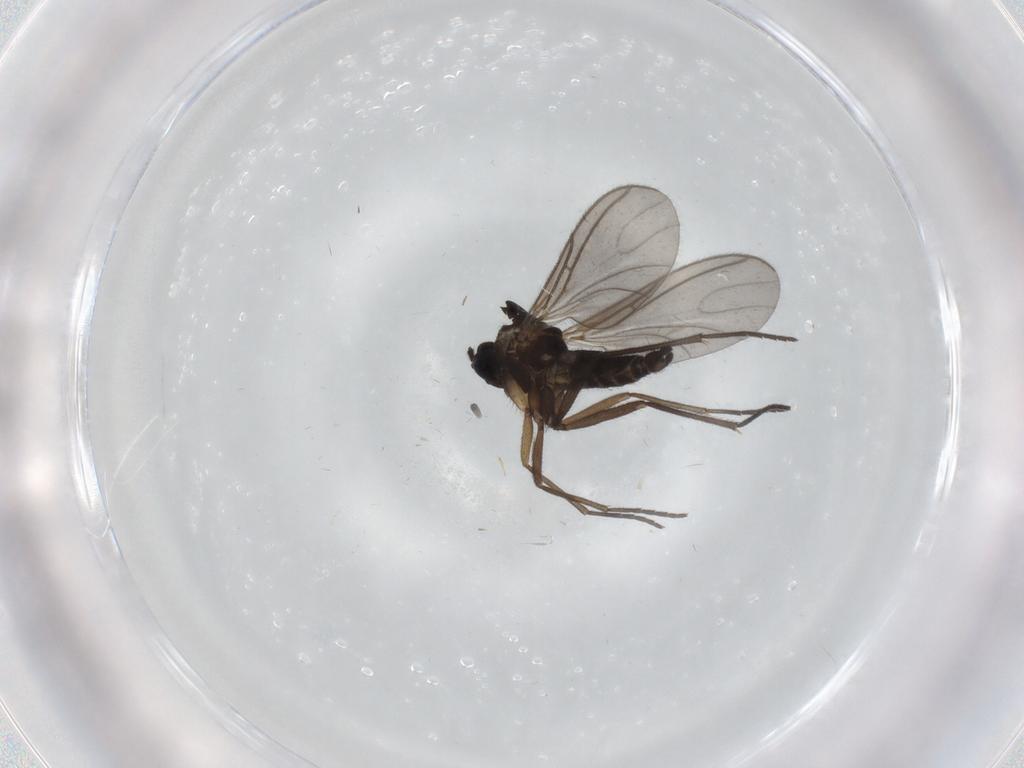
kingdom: Animalia
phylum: Arthropoda
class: Insecta
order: Diptera
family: Sciaridae
